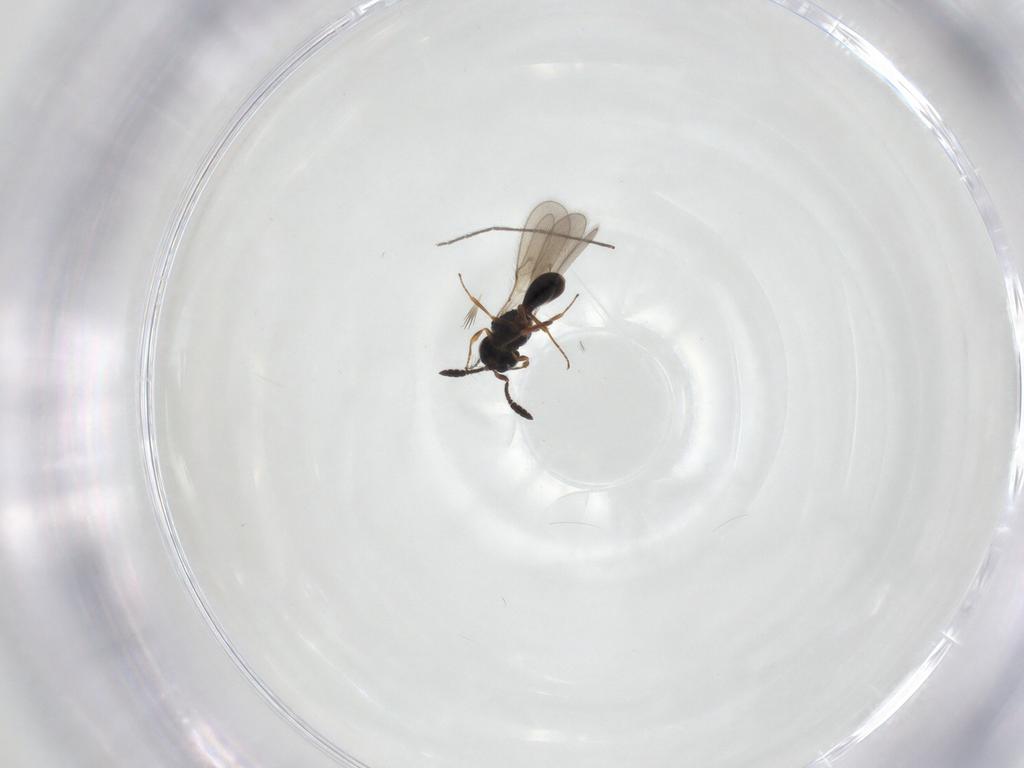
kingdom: Animalia
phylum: Arthropoda
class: Insecta
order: Hymenoptera
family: Scelionidae
